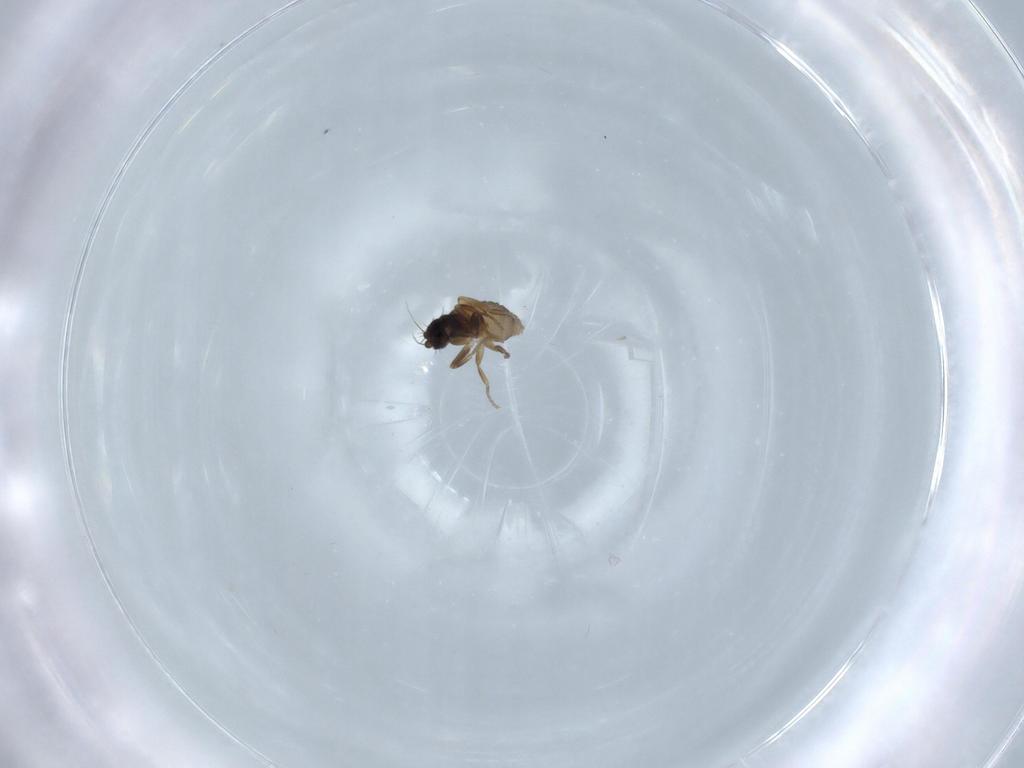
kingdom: Animalia
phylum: Arthropoda
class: Insecta
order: Diptera
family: Phoridae
